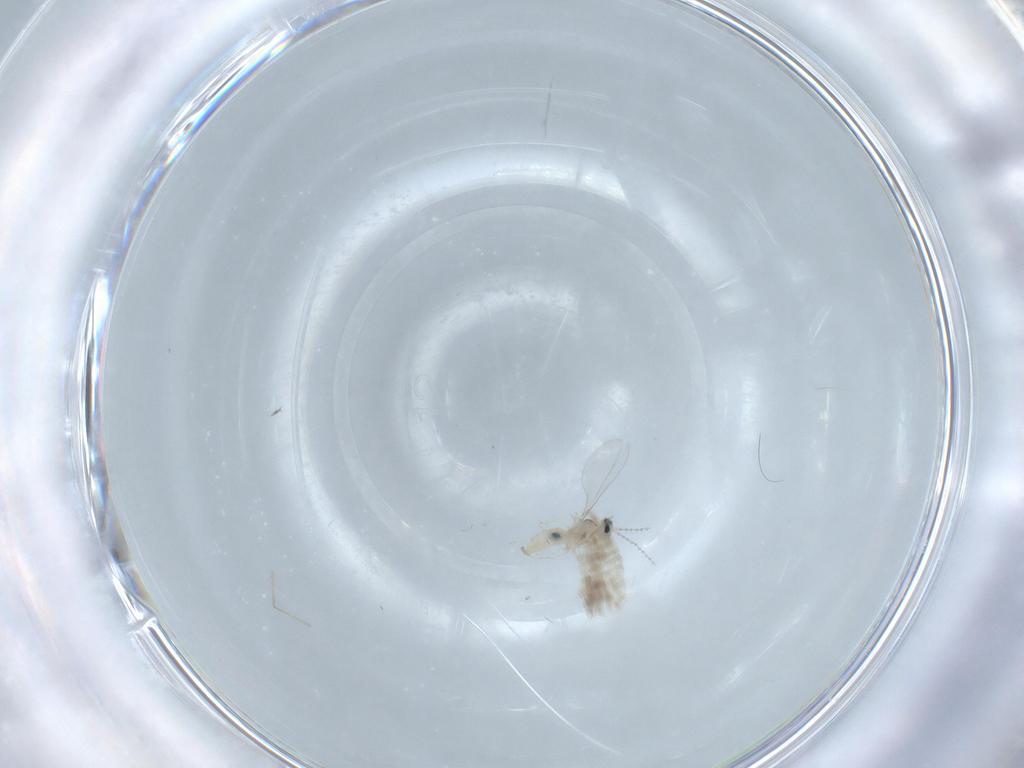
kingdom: Animalia
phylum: Arthropoda
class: Insecta
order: Diptera
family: Cecidomyiidae
